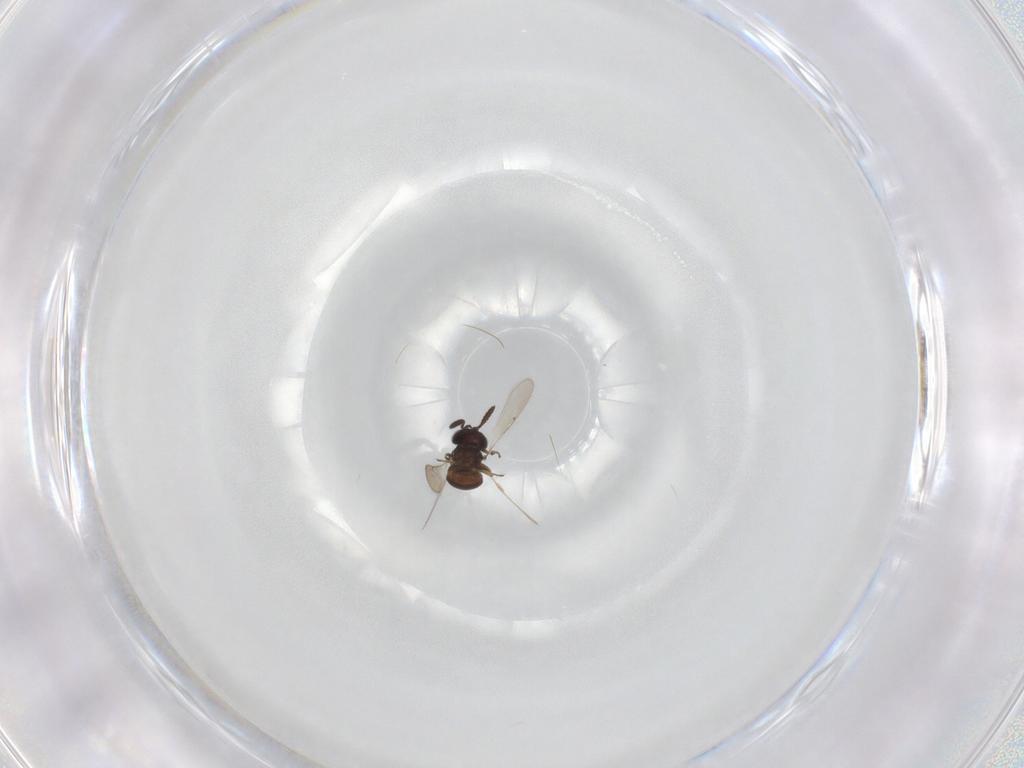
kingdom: Animalia
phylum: Arthropoda
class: Insecta
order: Hymenoptera
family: Scelionidae
